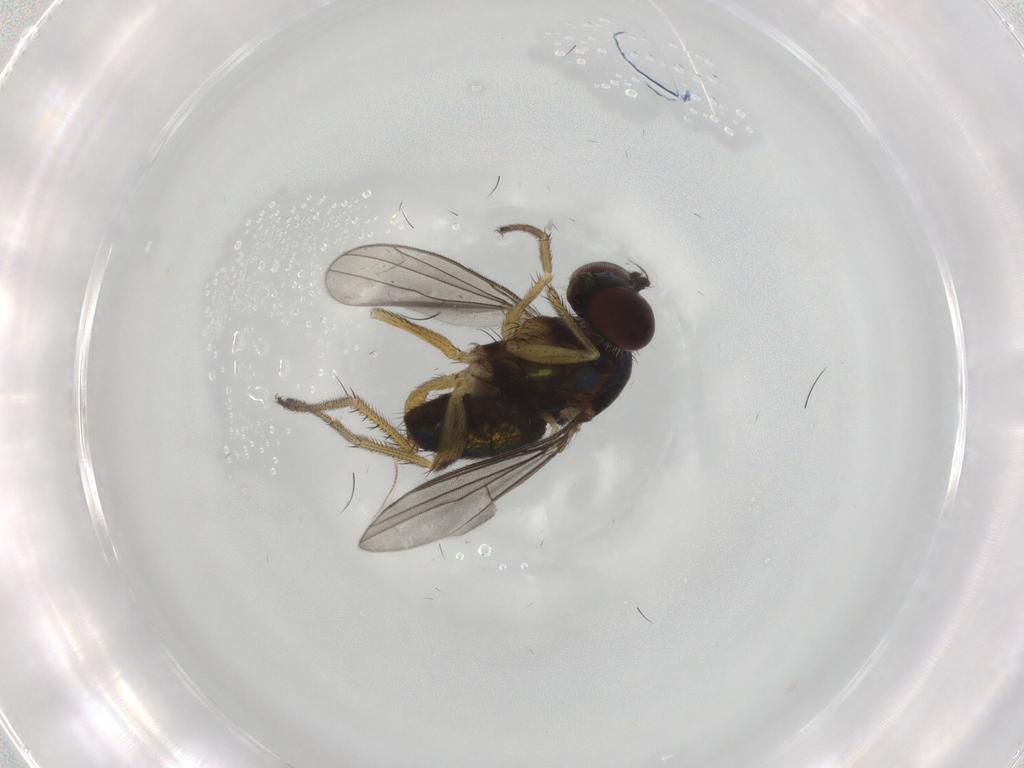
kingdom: Animalia
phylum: Arthropoda
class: Insecta
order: Diptera
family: Dolichopodidae
